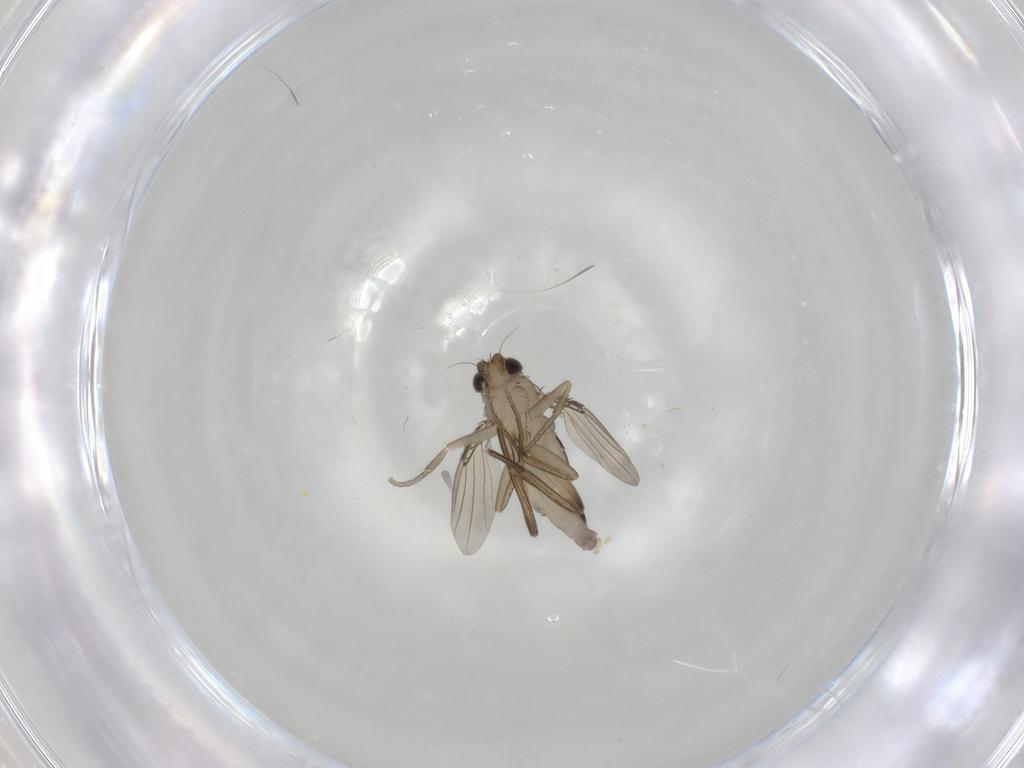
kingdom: Animalia
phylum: Arthropoda
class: Insecta
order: Diptera
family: Phoridae
